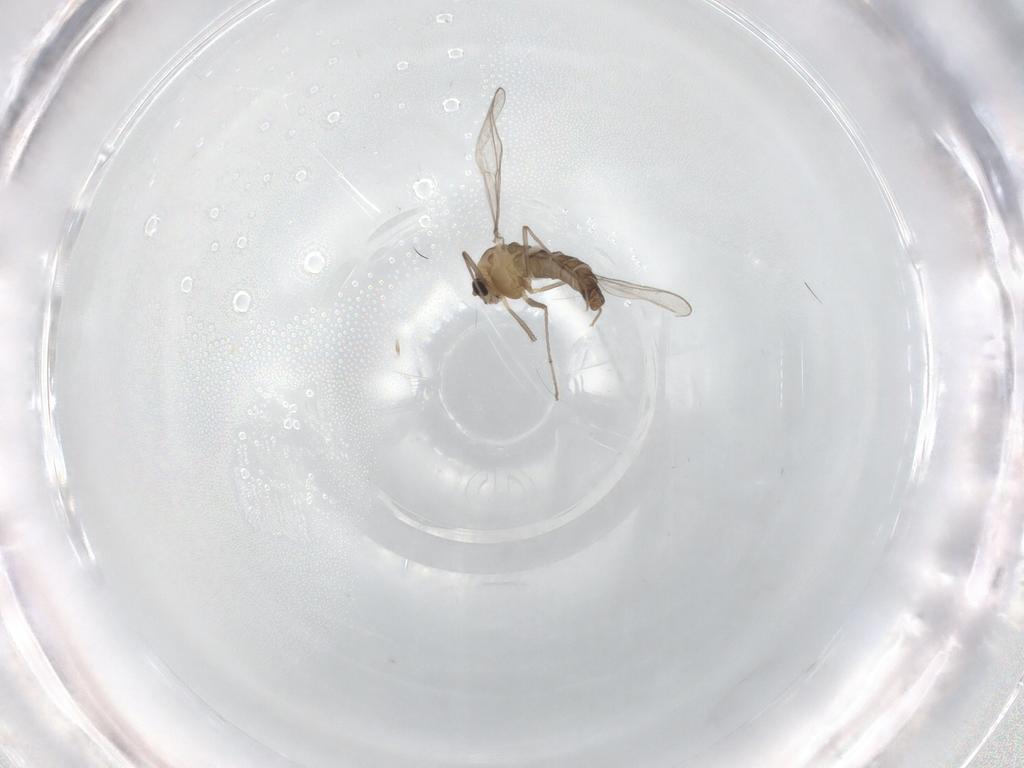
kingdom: Animalia
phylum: Arthropoda
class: Insecta
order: Diptera
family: Chironomidae
